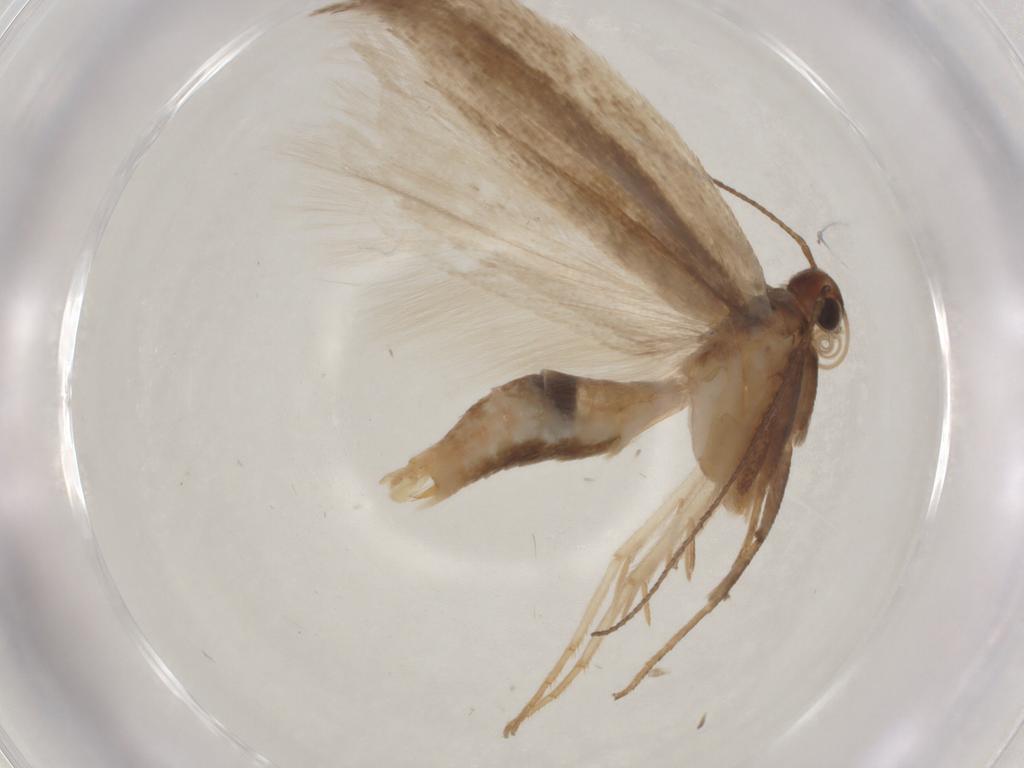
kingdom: Animalia
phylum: Arthropoda
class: Insecta
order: Lepidoptera
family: Gelechiidae
